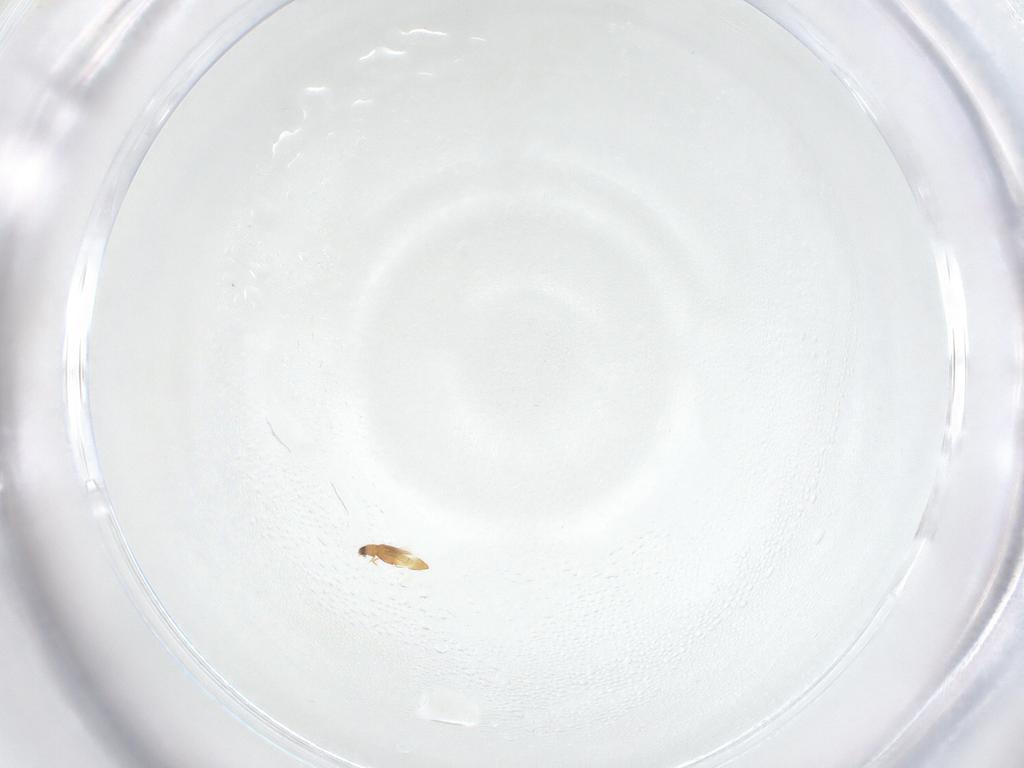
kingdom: Animalia
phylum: Arthropoda
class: Insecta
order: Coleoptera
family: Ptiliidae
